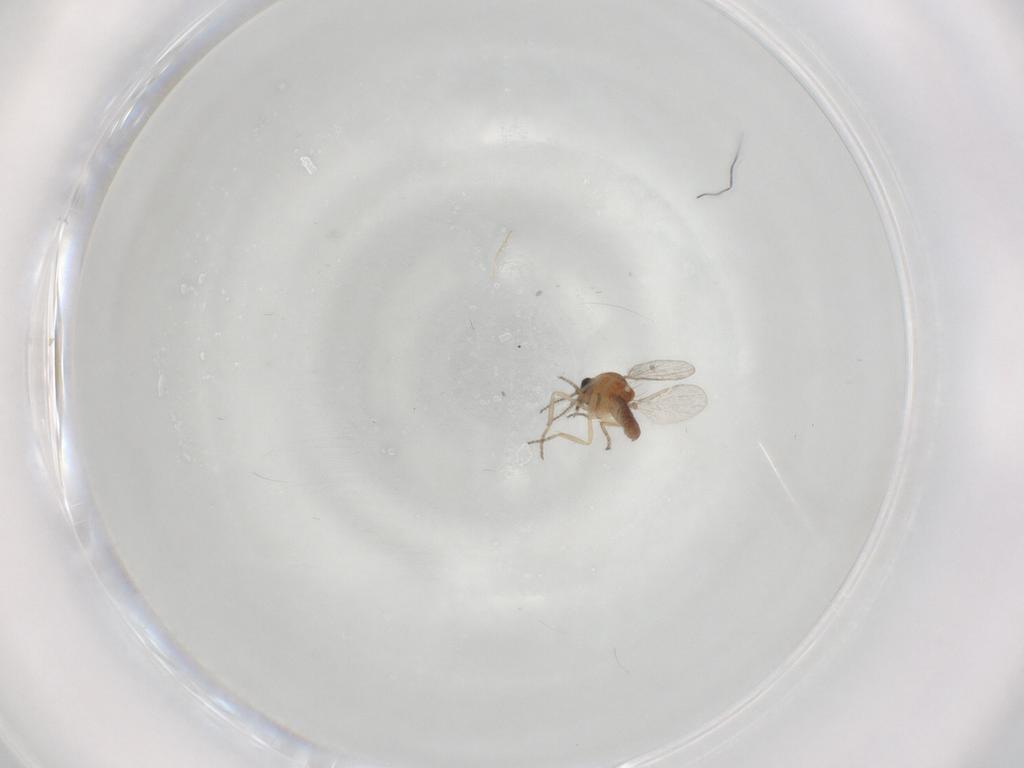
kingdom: Animalia
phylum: Arthropoda
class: Insecta
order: Diptera
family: Ceratopogonidae
